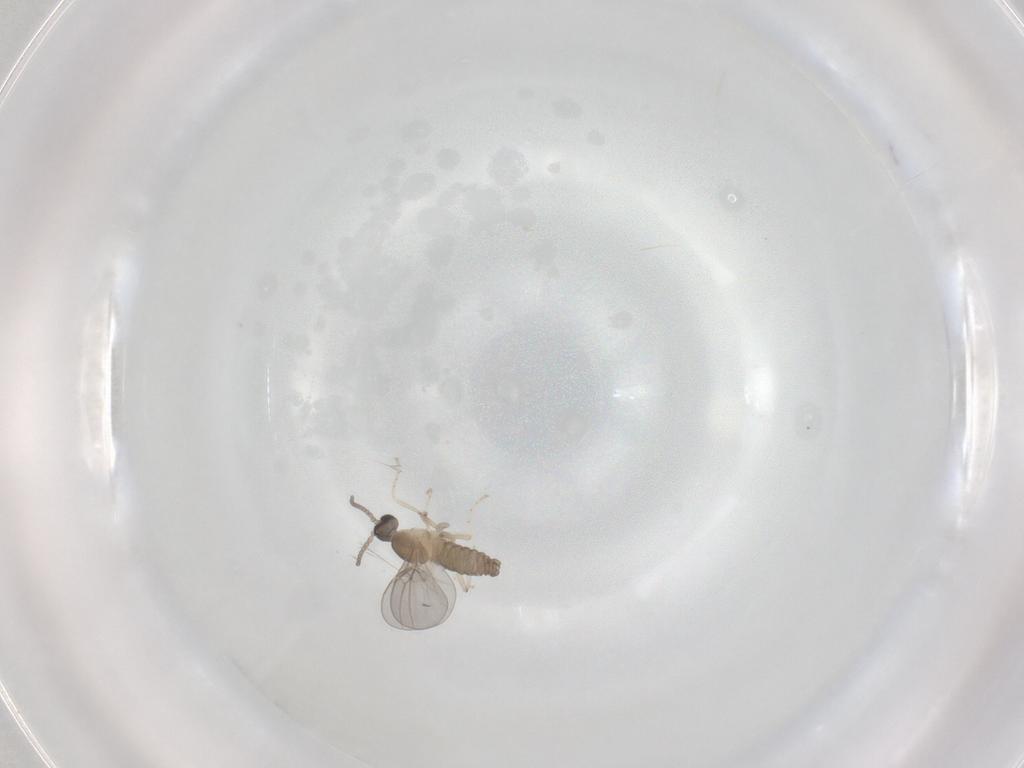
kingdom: Animalia
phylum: Arthropoda
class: Insecta
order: Diptera
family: Cecidomyiidae
